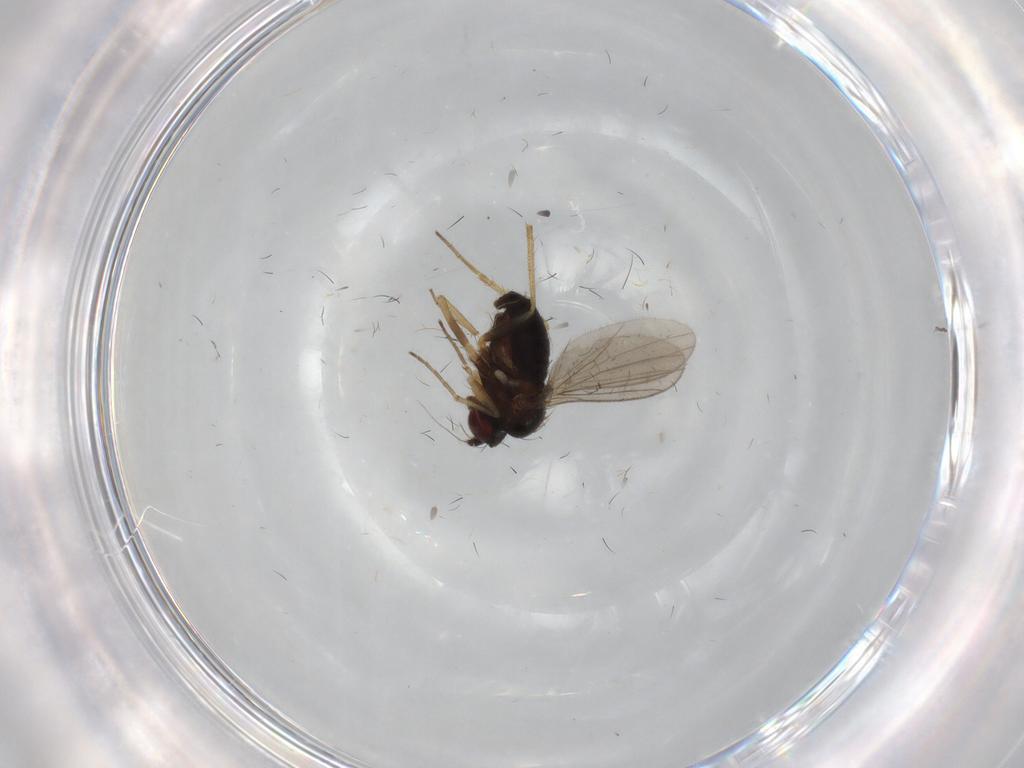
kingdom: Animalia
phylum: Arthropoda
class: Insecta
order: Diptera
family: Dolichopodidae
